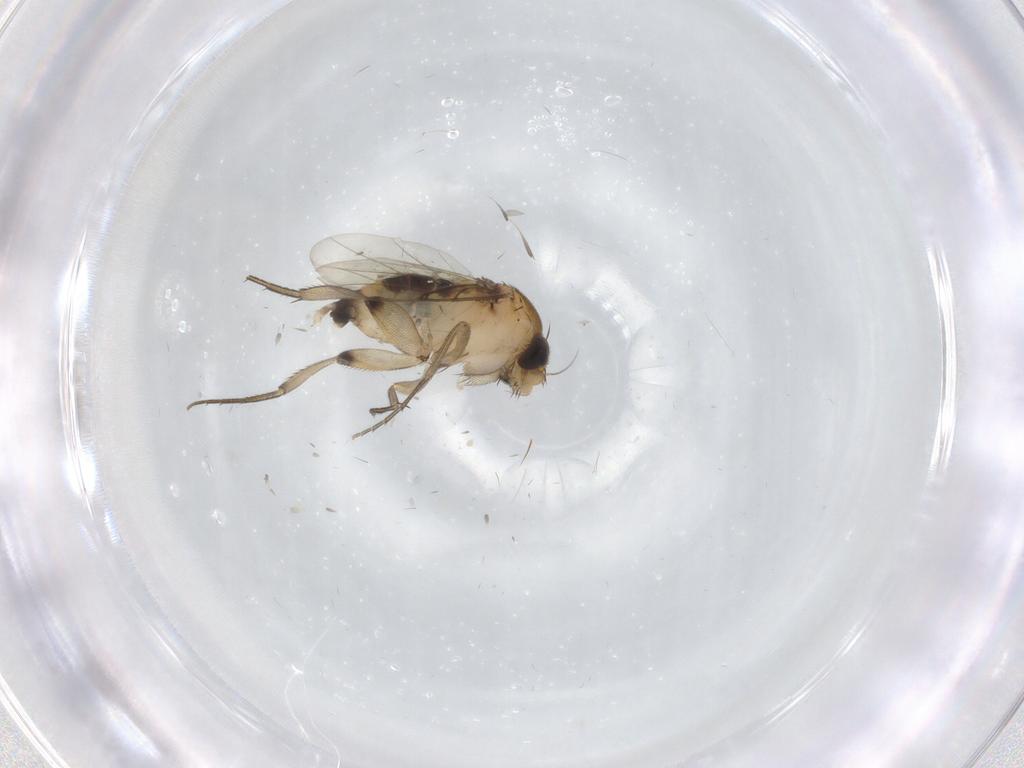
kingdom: Animalia
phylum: Arthropoda
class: Insecta
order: Diptera
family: Phoridae
